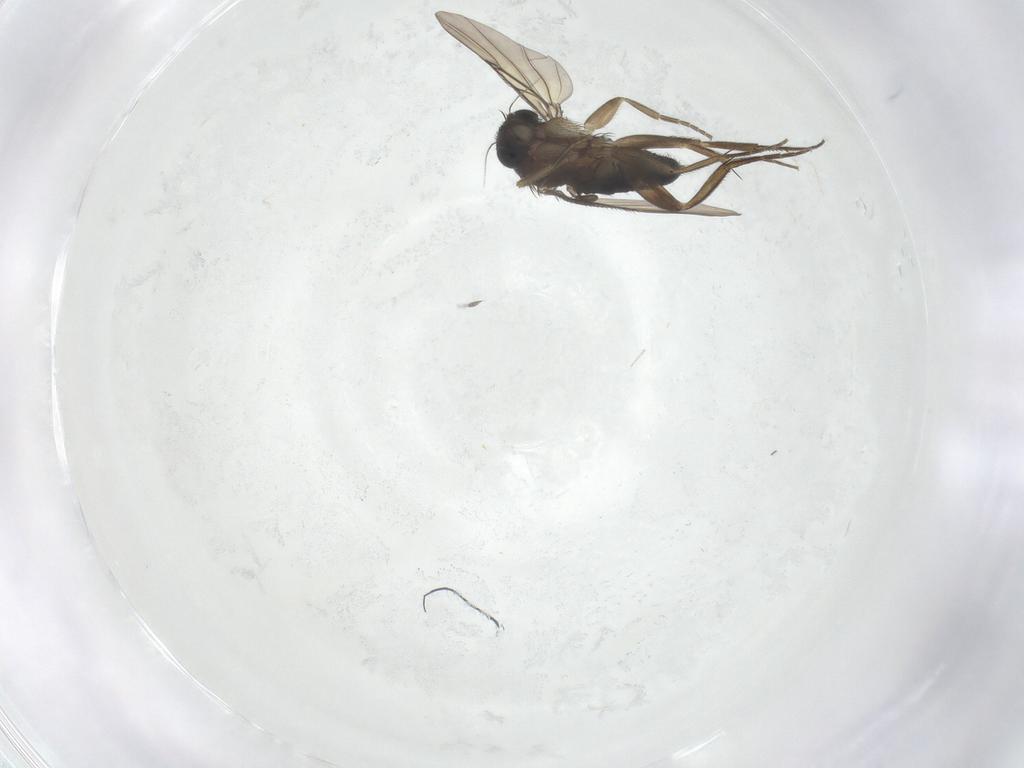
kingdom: Animalia
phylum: Arthropoda
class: Insecta
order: Diptera
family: Phoridae
